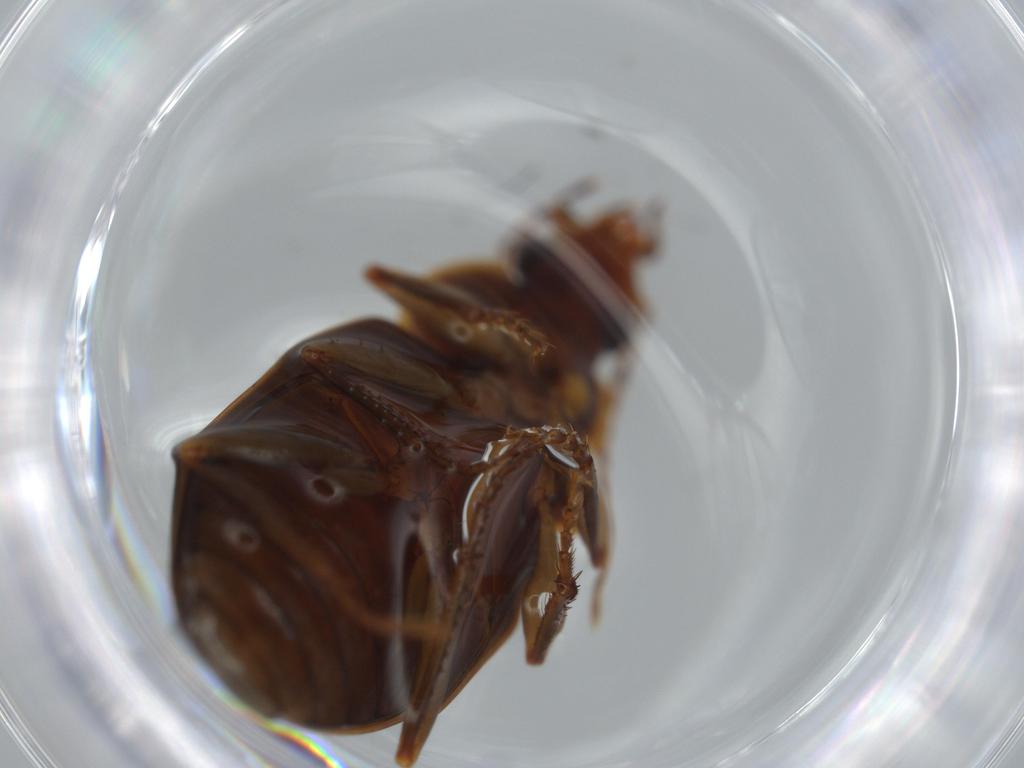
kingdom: Animalia
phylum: Arthropoda
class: Insecta
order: Coleoptera
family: Carabidae
